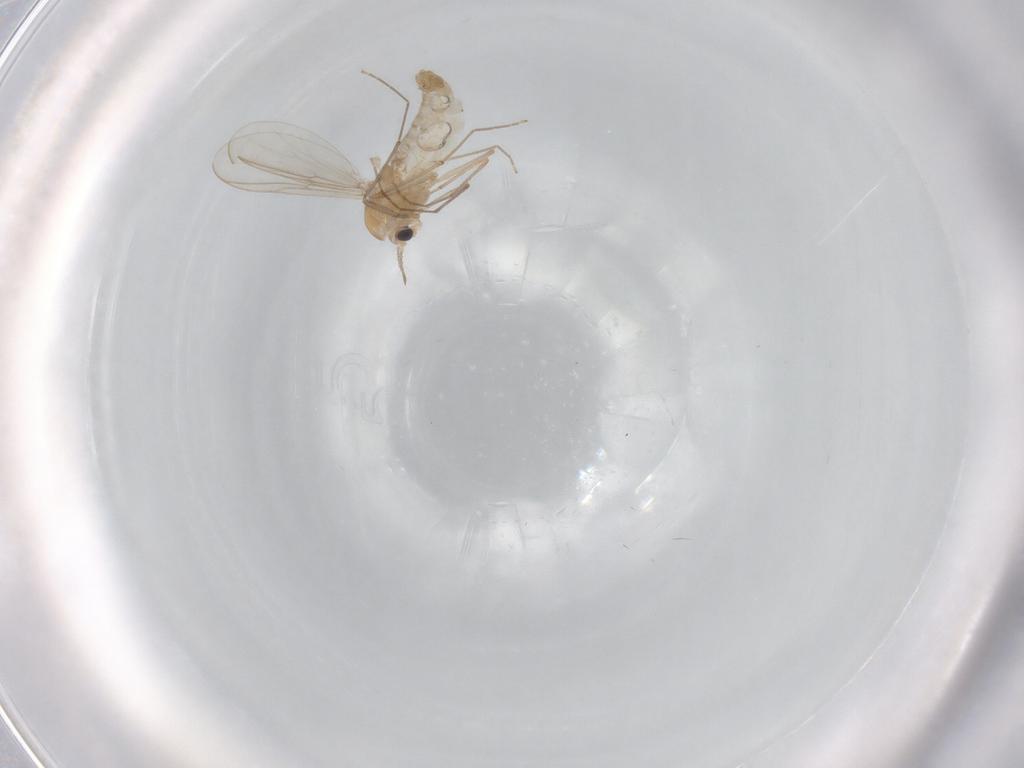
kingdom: Animalia
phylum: Arthropoda
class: Insecta
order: Diptera
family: Chironomidae
